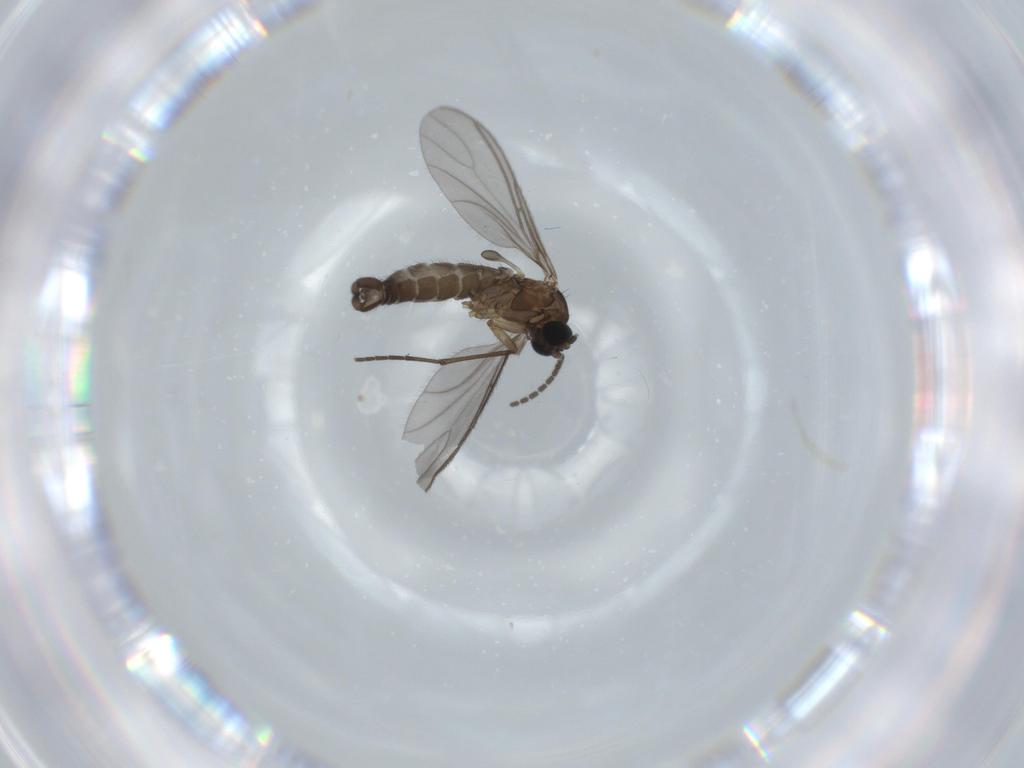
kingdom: Animalia
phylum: Arthropoda
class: Insecta
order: Diptera
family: Sciaridae
